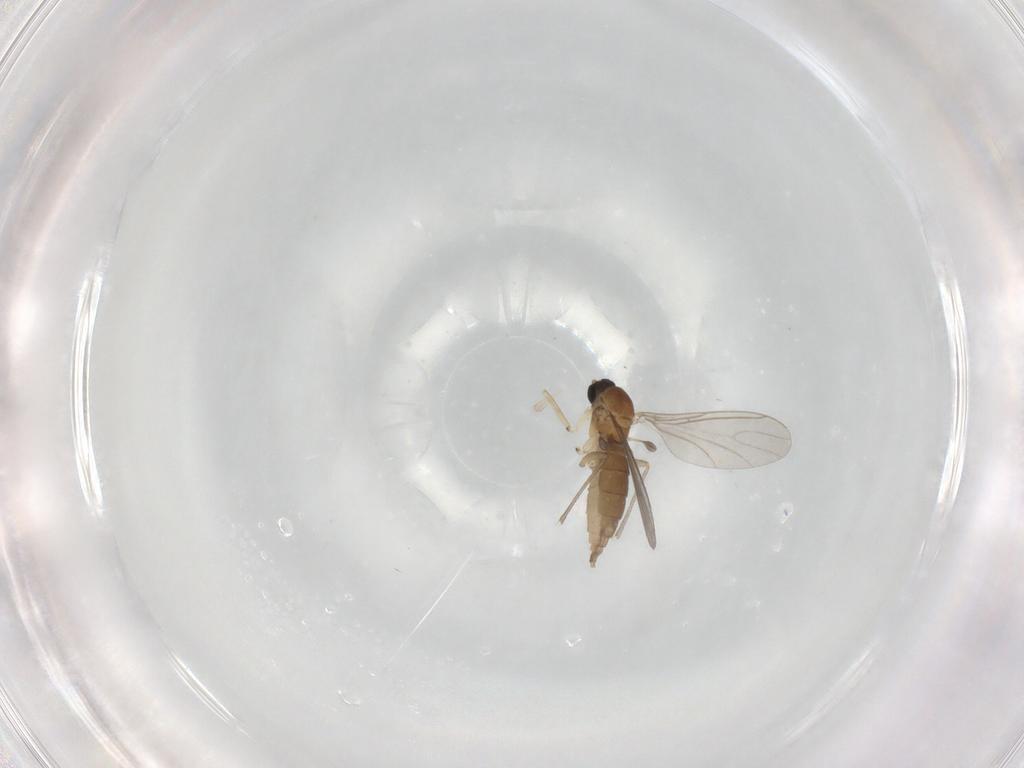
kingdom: Animalia
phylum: Arthropoda
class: Insecta
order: Diptera
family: Sciaridae
